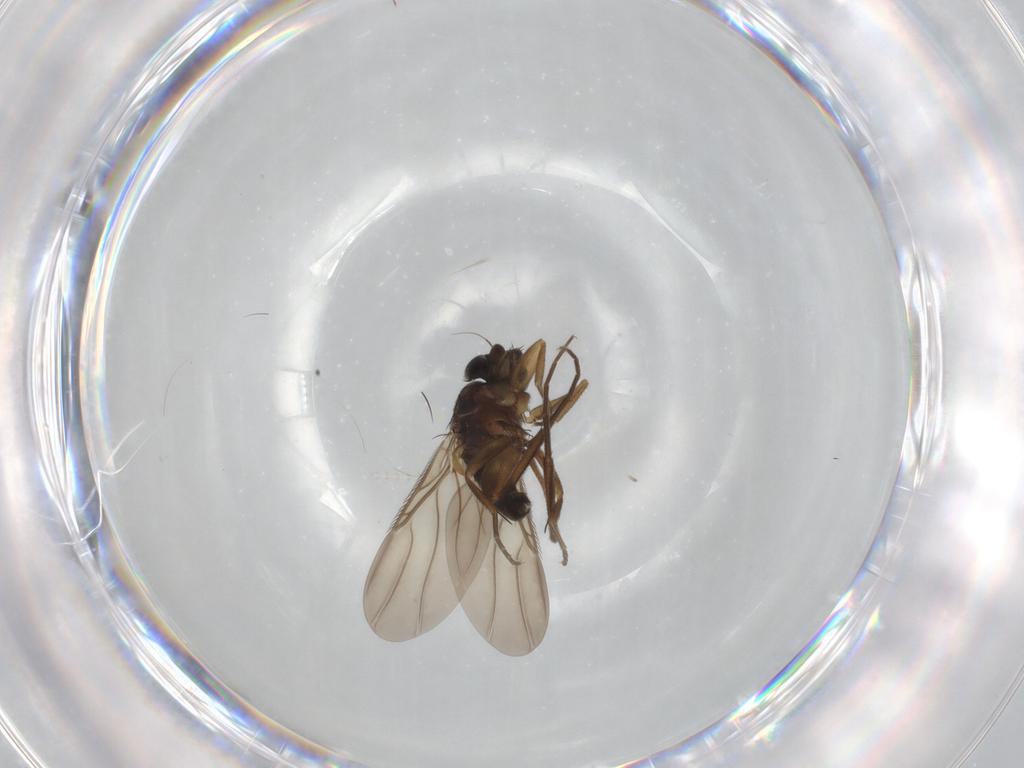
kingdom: Animalia
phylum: Arthropoda
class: Insecta
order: Diptera
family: Phoridae
